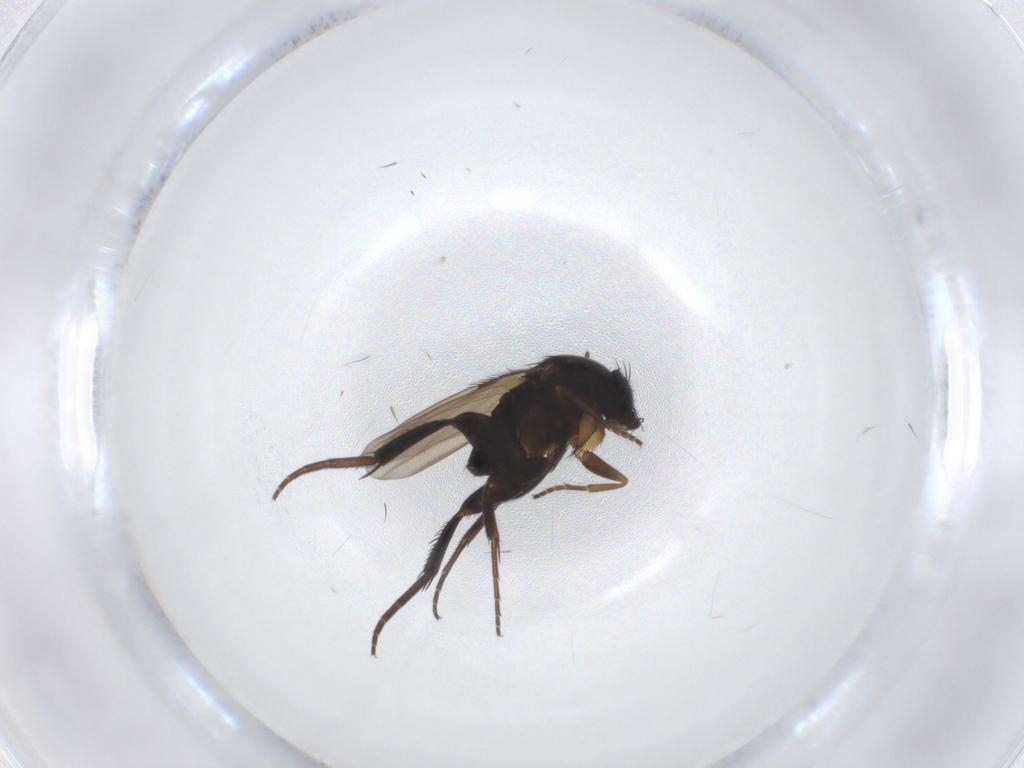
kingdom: Animalia
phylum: Arthropoda
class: Insecta
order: Diptera
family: Phoridae
